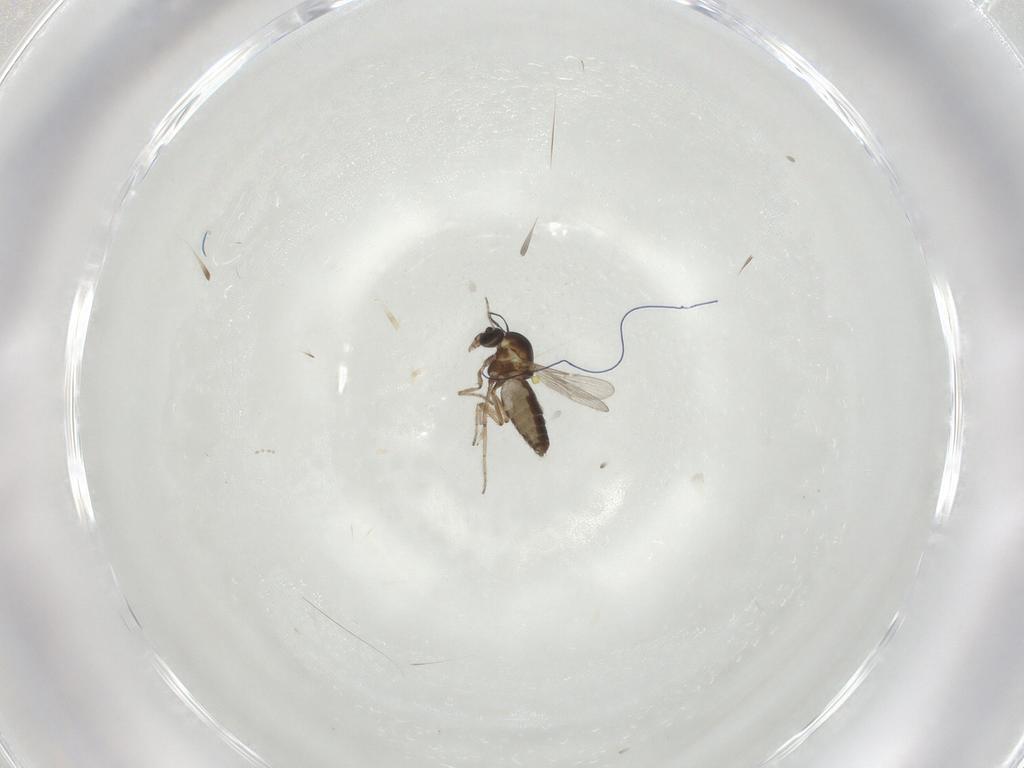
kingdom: Animalia
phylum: Arthropoda
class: Insecta
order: Diptera
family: Ceratopogonidae
